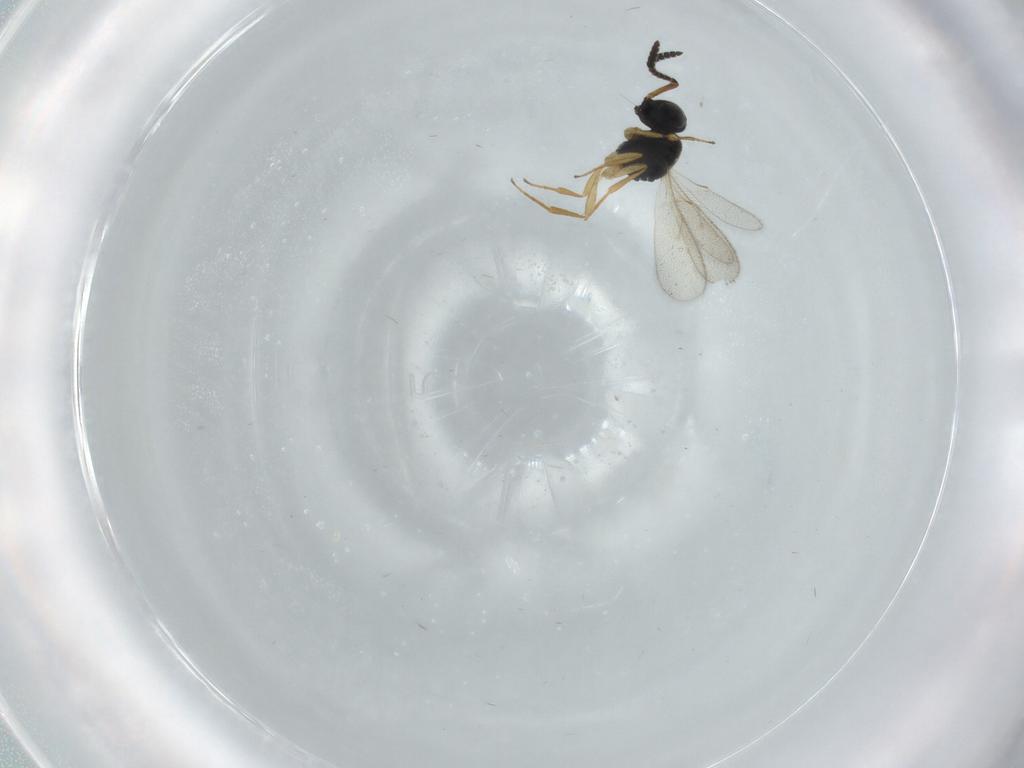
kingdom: Animalia
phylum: Arthropoda
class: Insecta
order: Hymenoptera
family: Scelionidae
